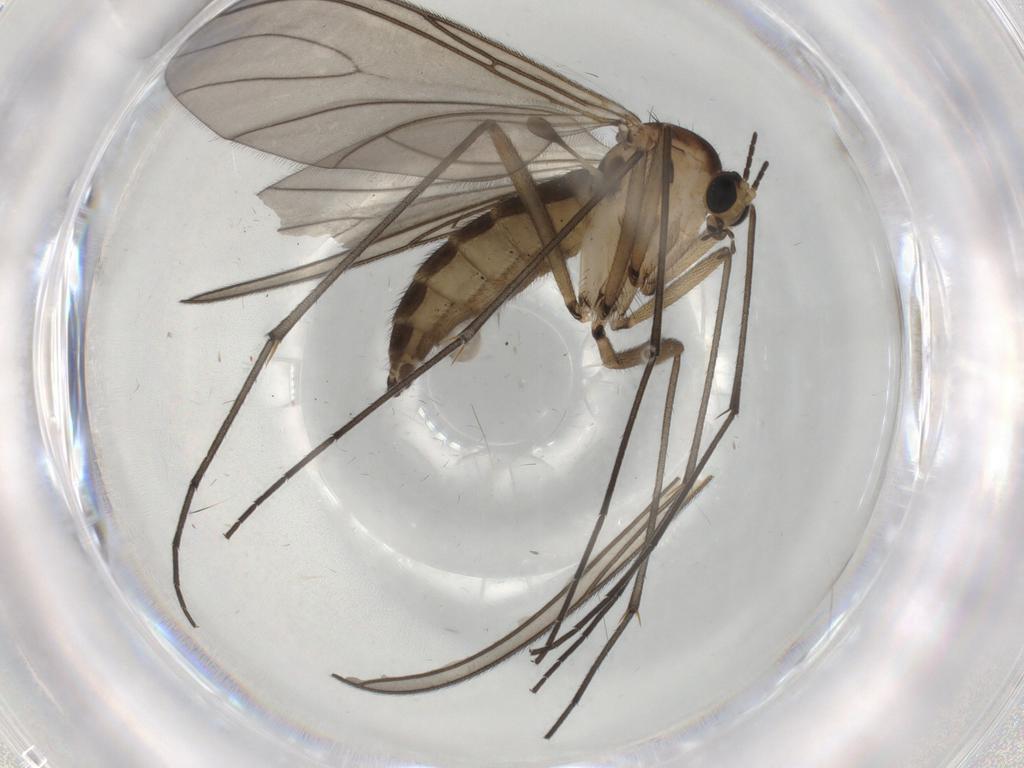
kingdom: Animalia
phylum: Arthropoda
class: Insecta
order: Diptera
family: Sciaridae
